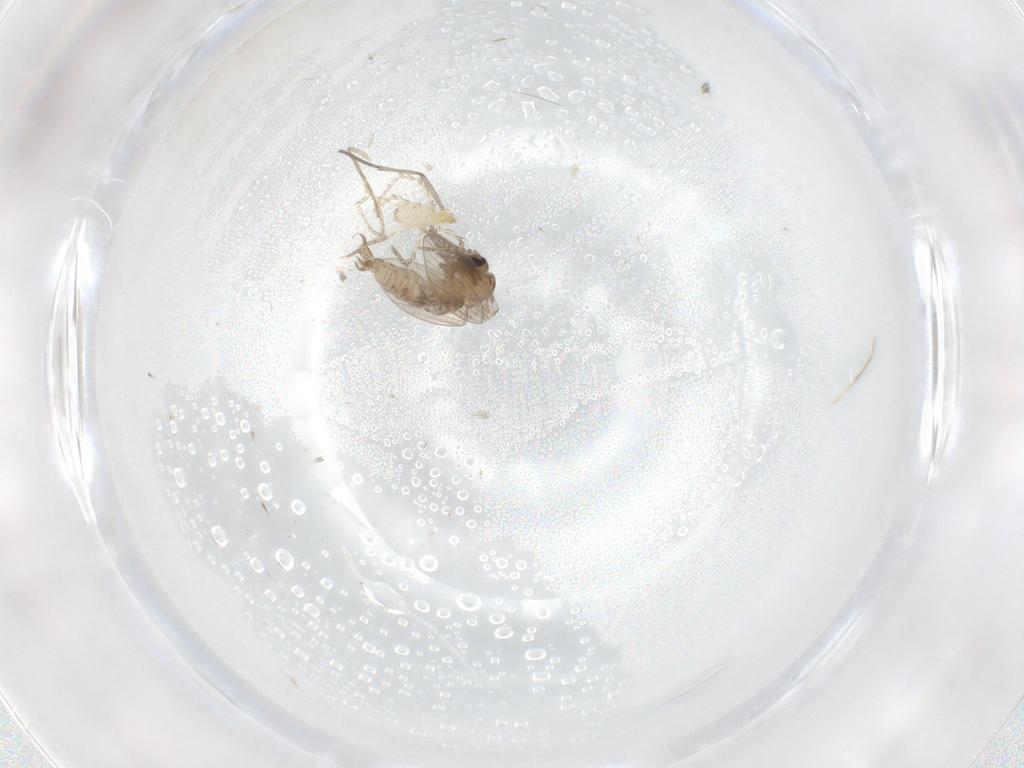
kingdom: Animalia
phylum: Arthropoda
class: Insecta
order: Diptera
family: Psychodidae
